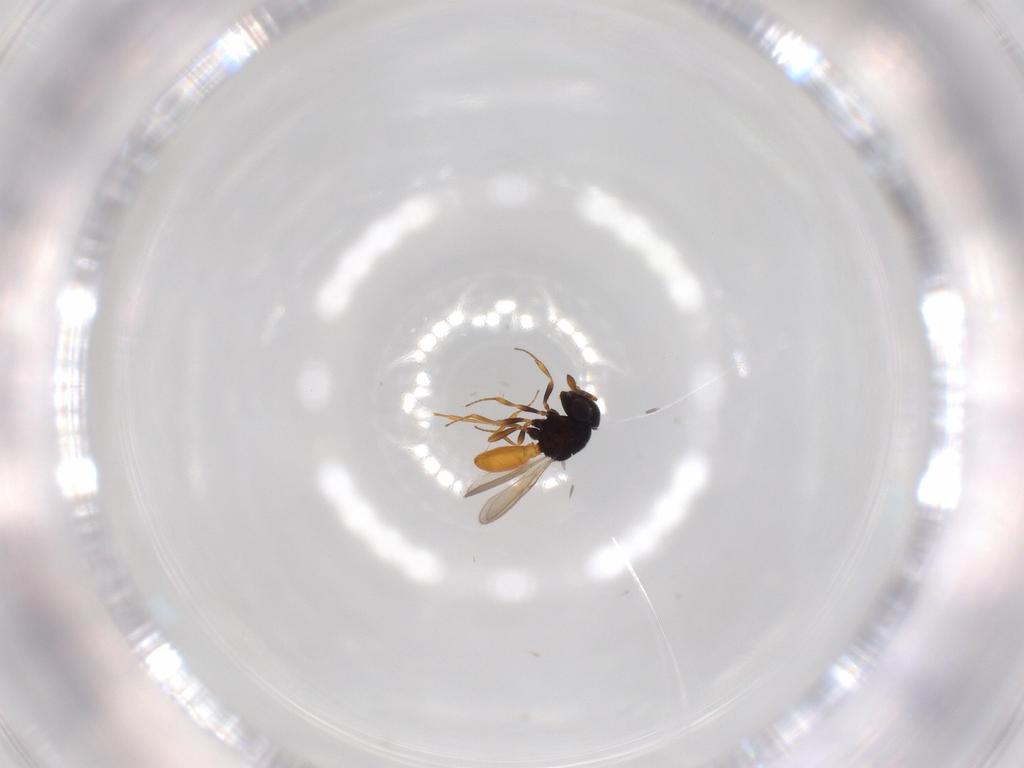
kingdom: Animalia
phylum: Arthropoda
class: Insecta
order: Hymenoptera
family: Scelionidae
